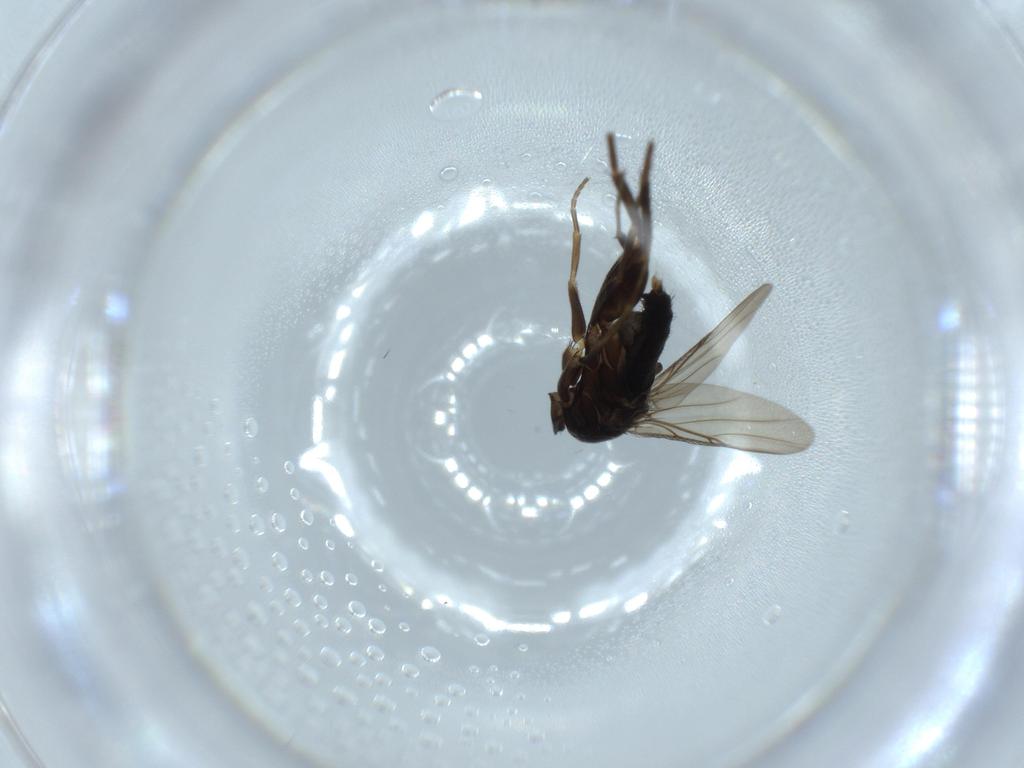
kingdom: Animalia
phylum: Arthropoda
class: Insecta
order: Diptera
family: Phoridae
